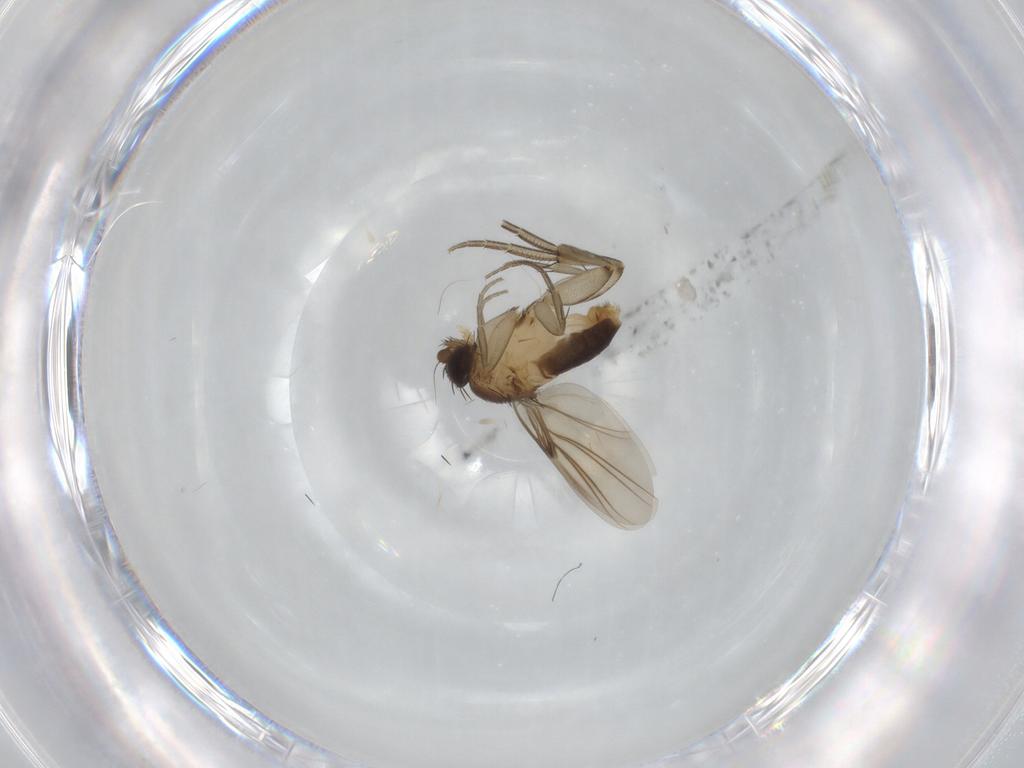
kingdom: Animalia
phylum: Arthropoda
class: Insecta
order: Diptera
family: Phoridae
